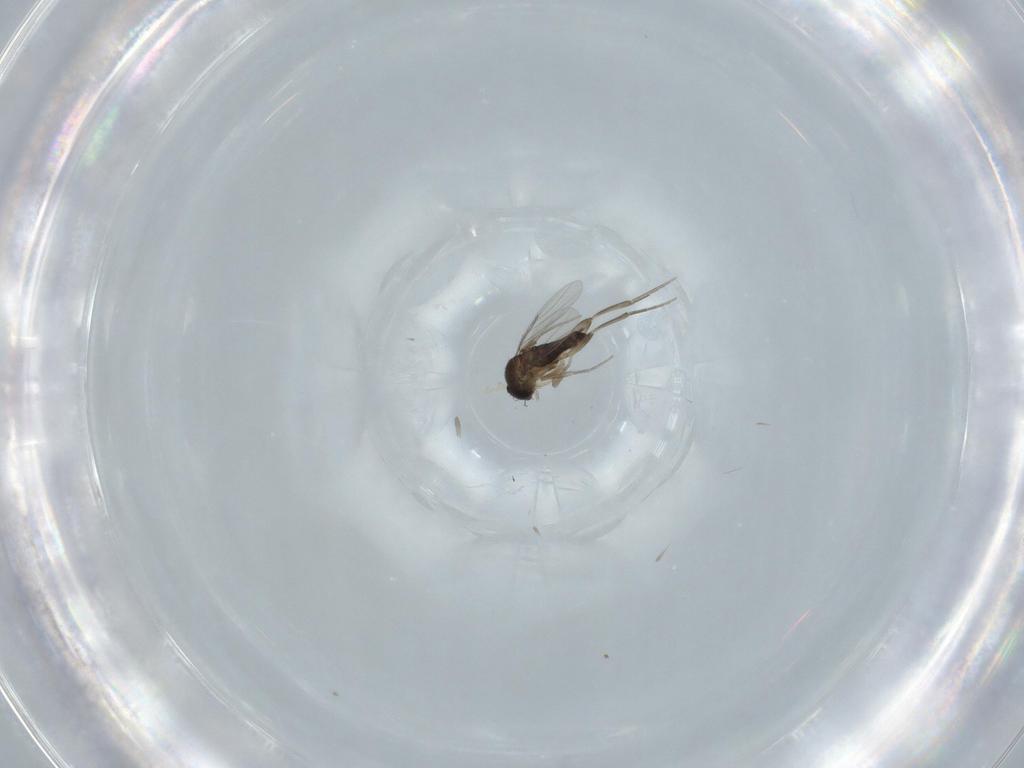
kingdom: Animalia
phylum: Arthropoda
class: Insecta
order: Diptera
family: Phoridae
